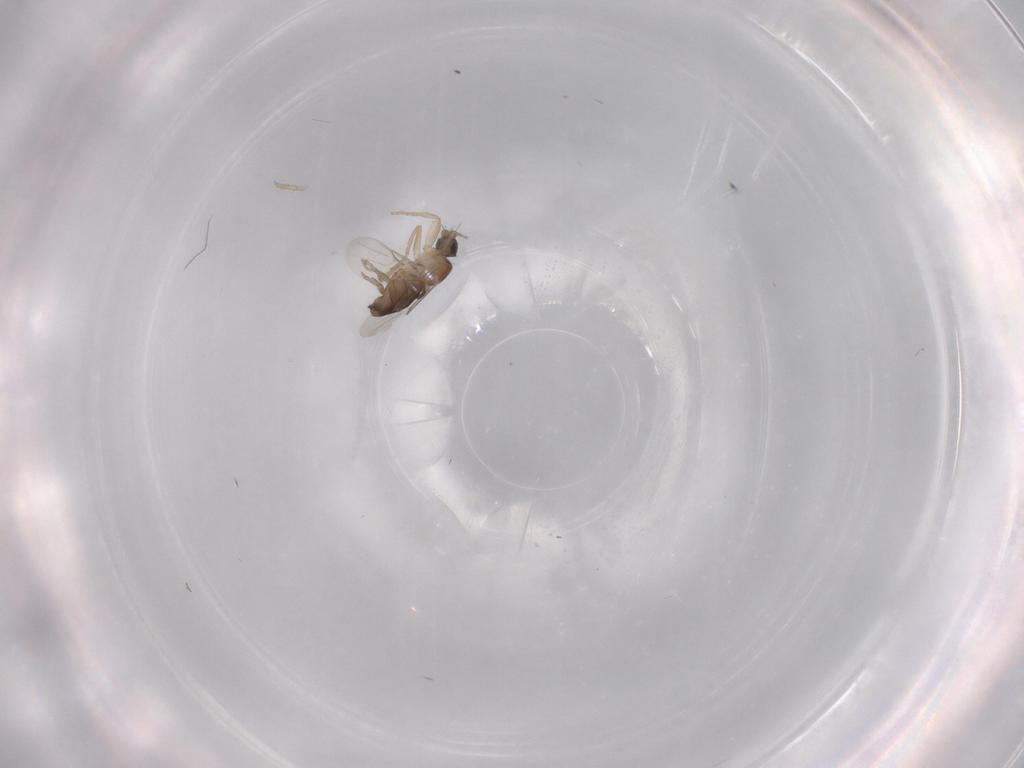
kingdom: Animalia
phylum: Arthropoda
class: Insecta
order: Diptera
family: Phoridae
